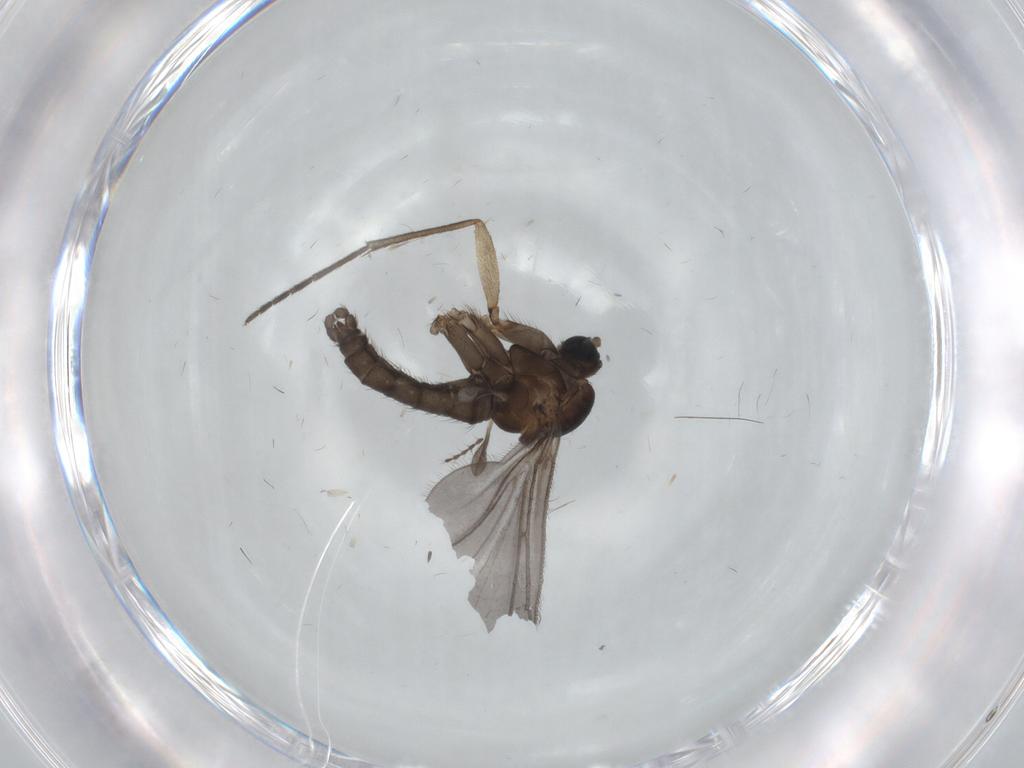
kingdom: Animalia
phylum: Arthropoda
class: Insecta
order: Diptera
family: Sciaridae
